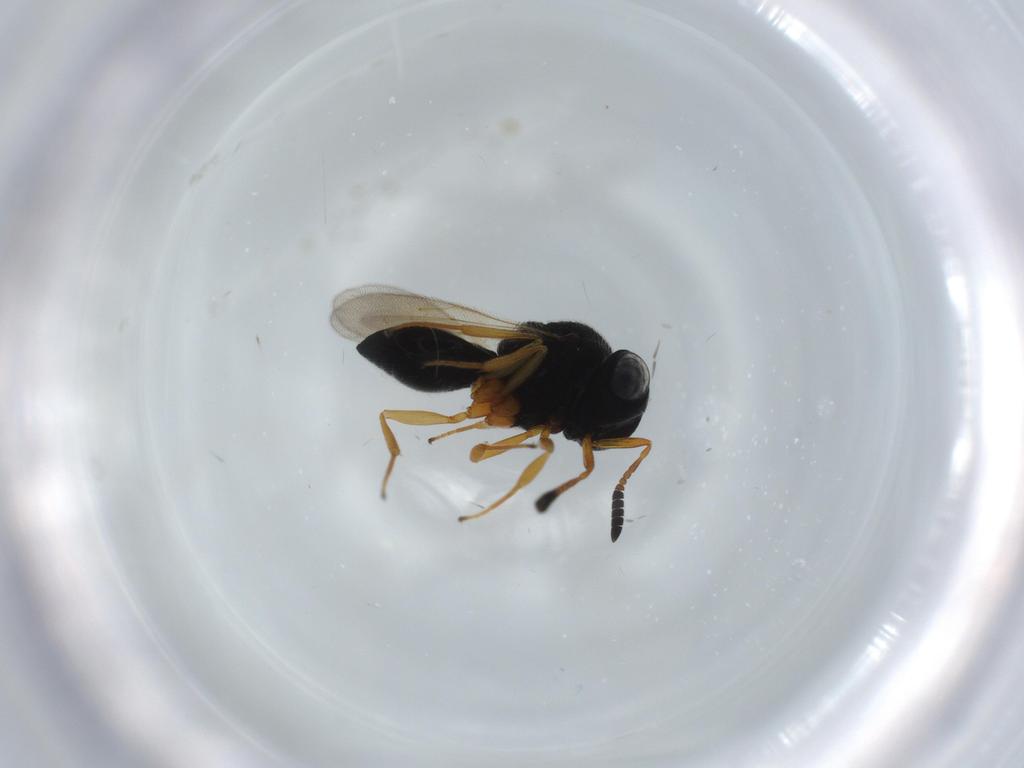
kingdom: Animalia
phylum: Arthropoda
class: Insecta
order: Hymenoptera
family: Scelionidae
